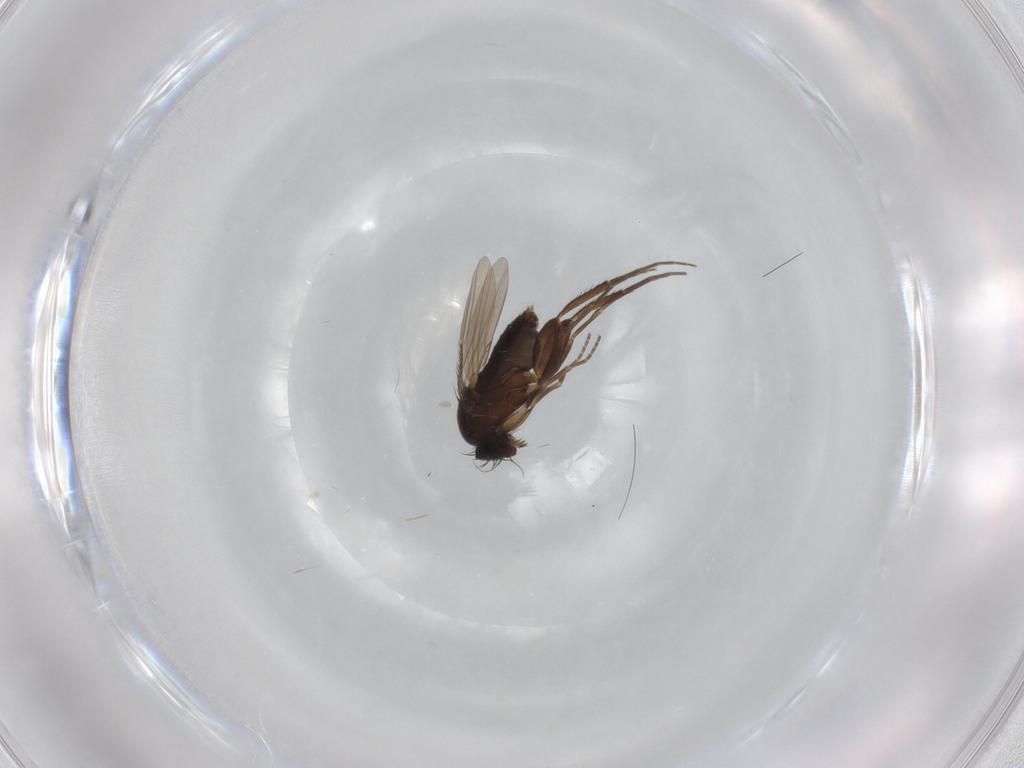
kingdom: Animalia
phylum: Arthropoda
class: Insecta
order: Diptera
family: Phoridae
